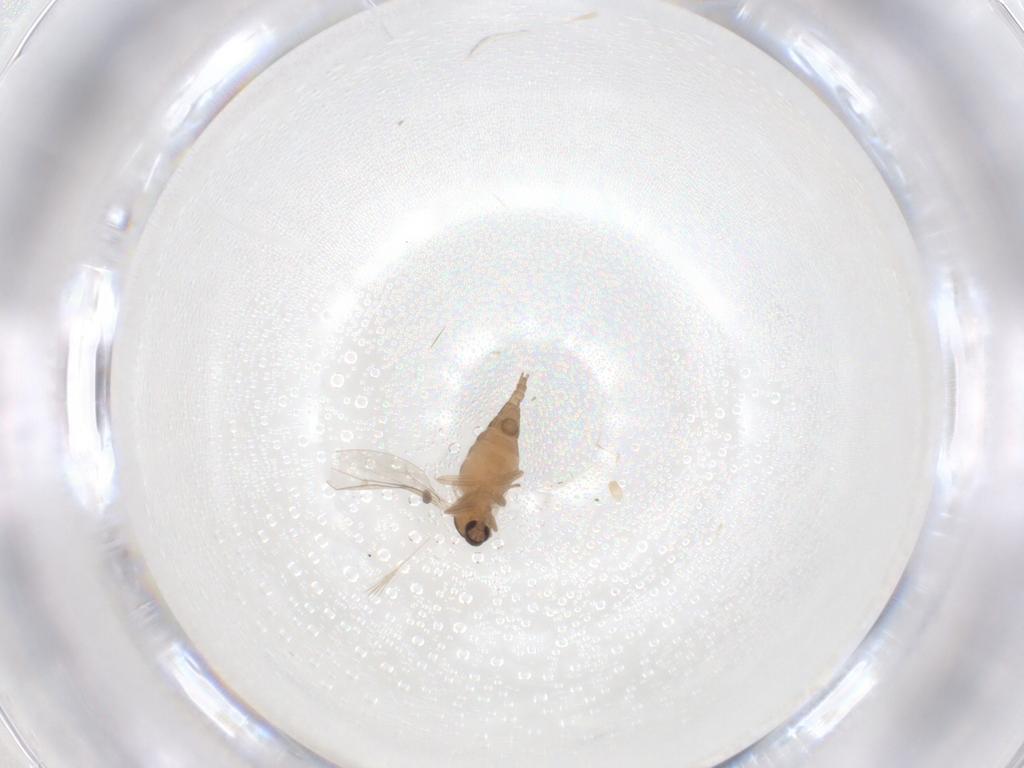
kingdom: Animalia
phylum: Arthropoda
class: Insecta
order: Diptera
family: Cecidomyiidae
